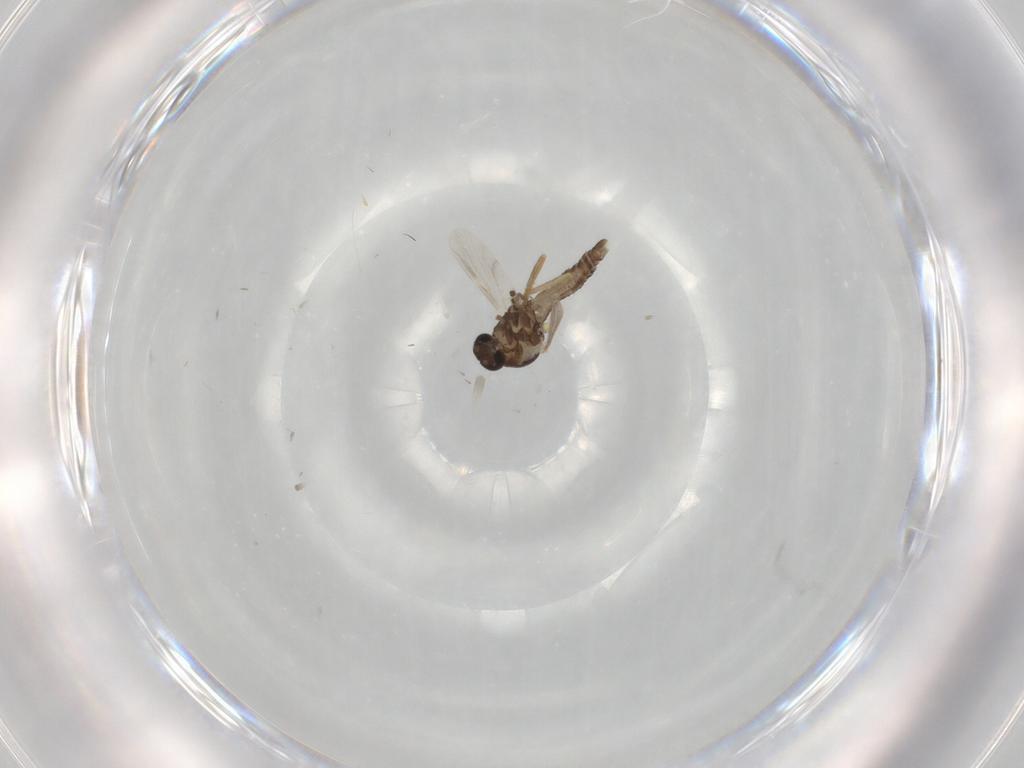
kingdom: Animalia
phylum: Arthropoda
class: Insecta
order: Diptera
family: Ceratopogonidae
